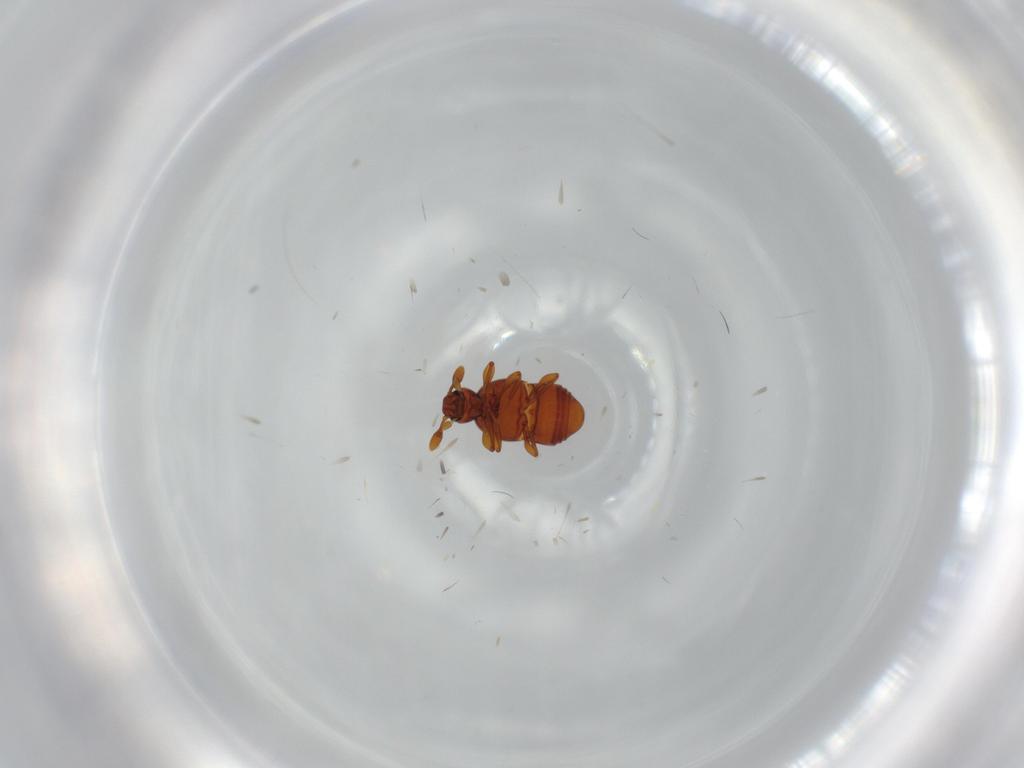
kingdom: Animalia
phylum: Arthropoda
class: Insecta
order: Coleoptera
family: Staphylinidae
